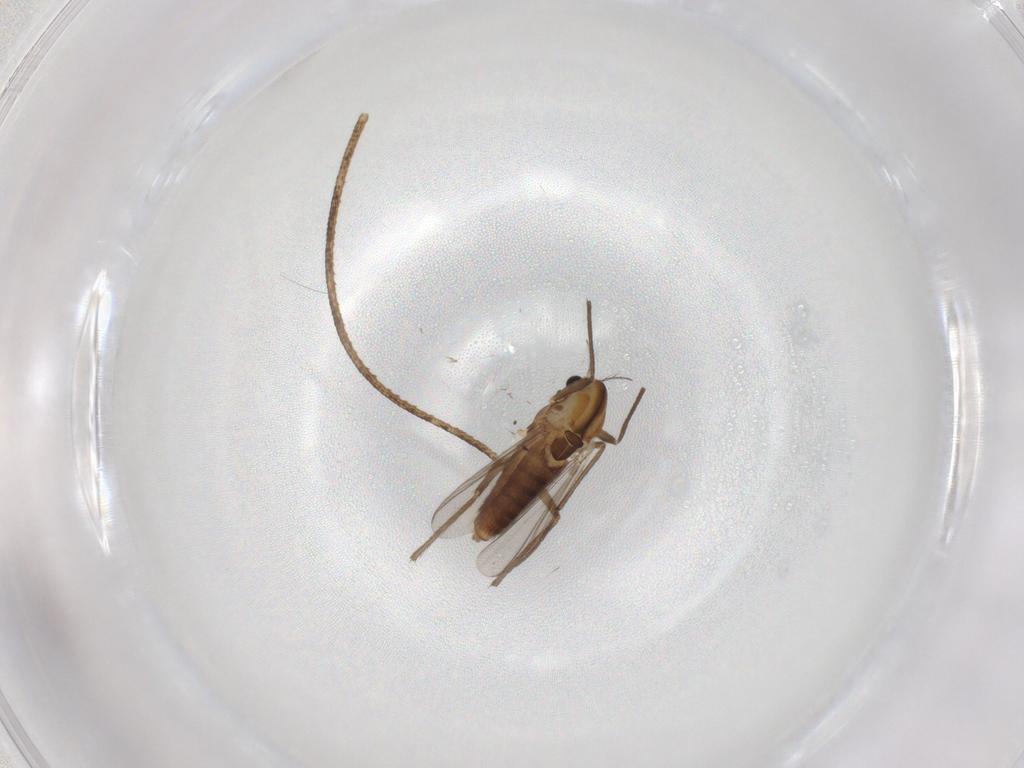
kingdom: Animalia
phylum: Arthropoda
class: Insecta
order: Diptera
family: Chironomidae
